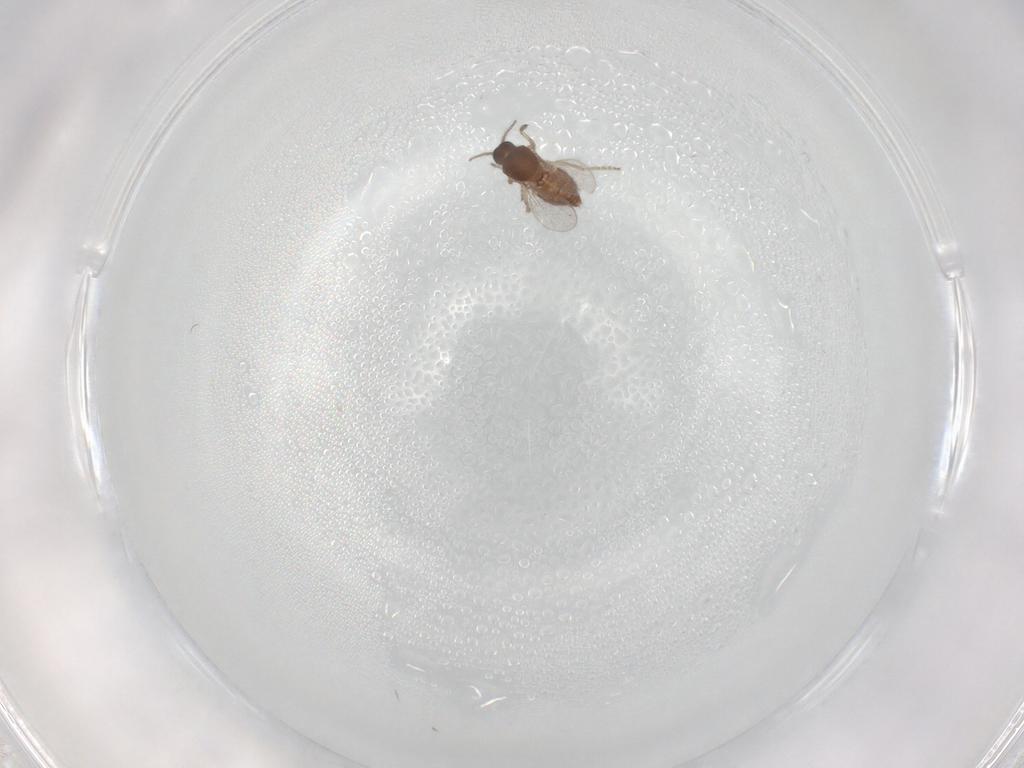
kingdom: Animalia
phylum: Arthropoda
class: Insecta
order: Diptera
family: Ceratopogonidae
